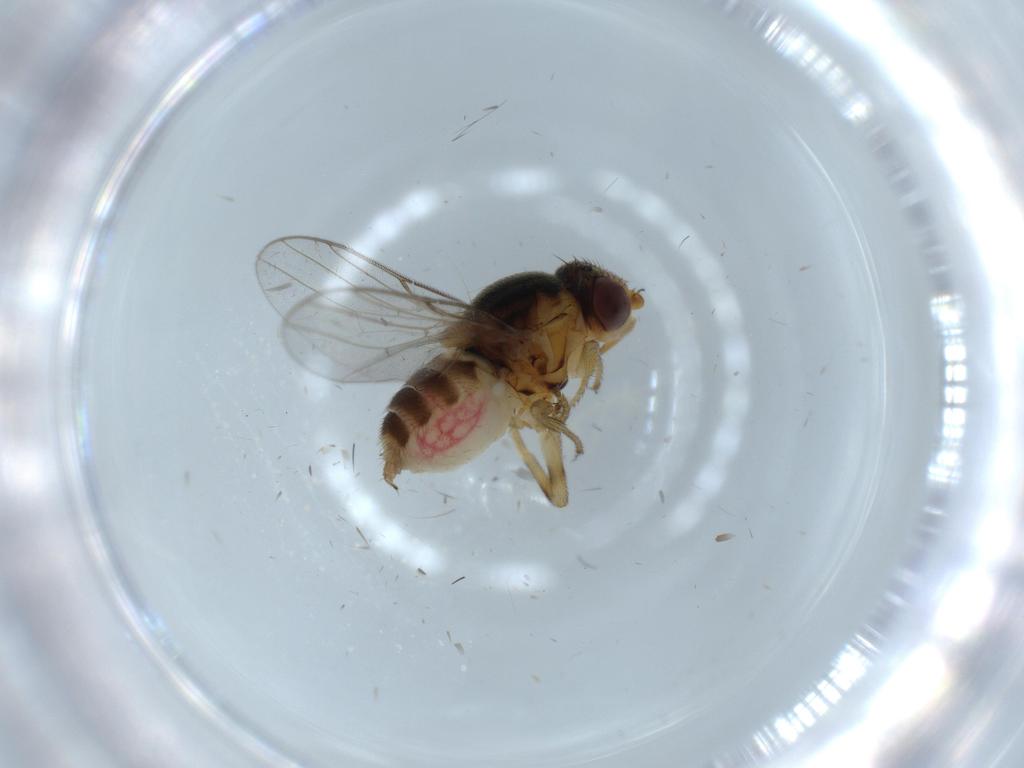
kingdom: Animalia
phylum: Arthropoda
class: Insecta
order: Diptera
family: Chloropidae
